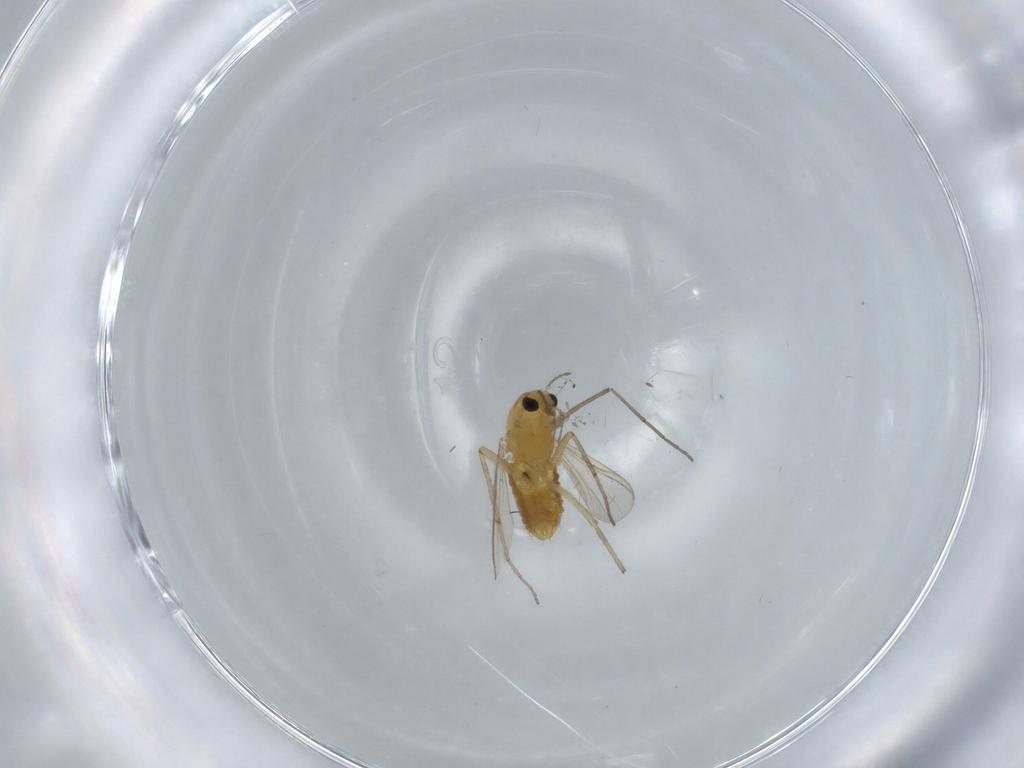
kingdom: Animalia
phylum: Arthropoda
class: Insecta
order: Diptera
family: Chironomidae
